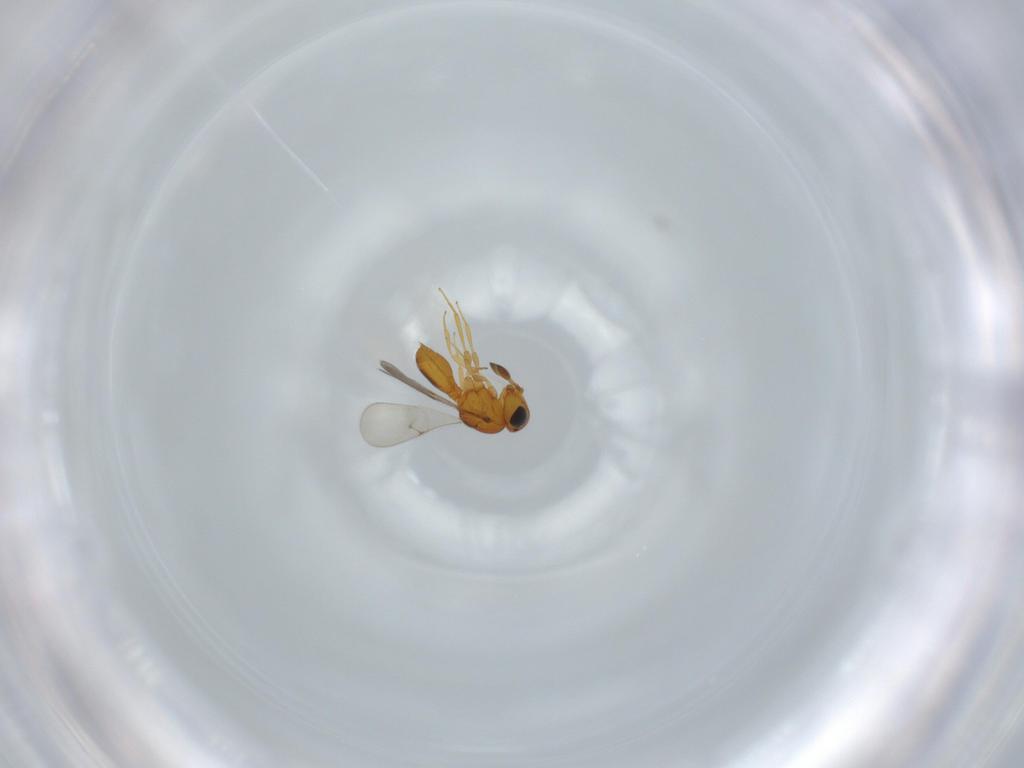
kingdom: Animalia
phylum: Arthropoda
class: Insecta
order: Hymenoptera
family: Scelionidae
